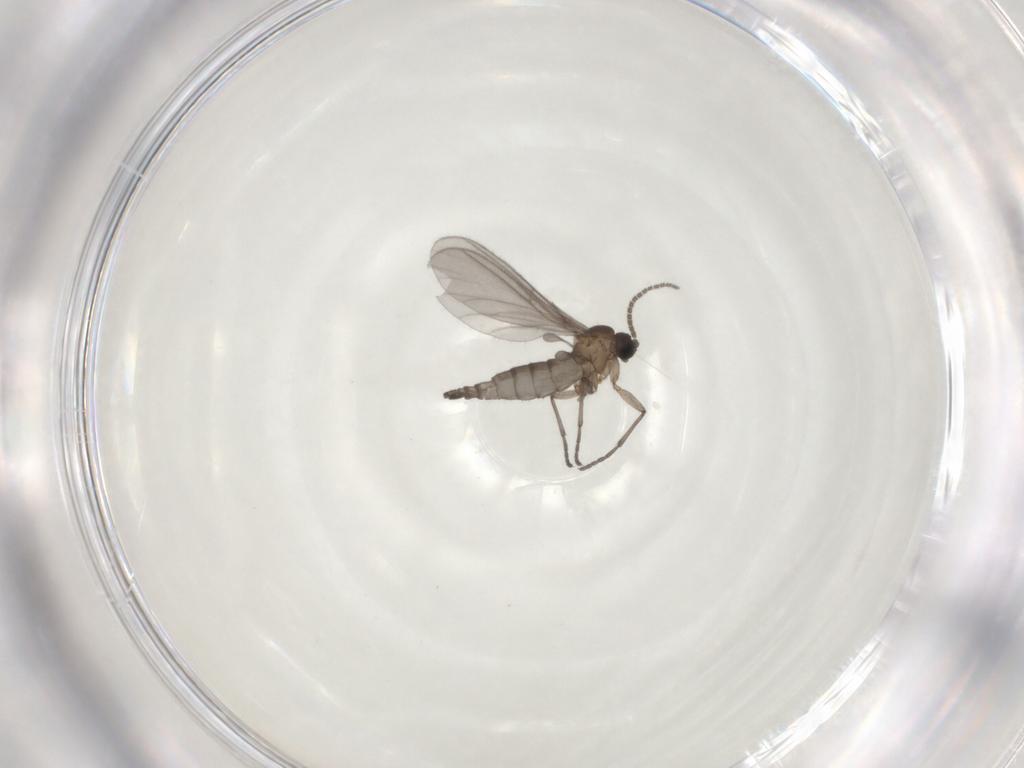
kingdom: Animalia
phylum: Arthropoda
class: Insecta
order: Diptera
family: Sciaridae
